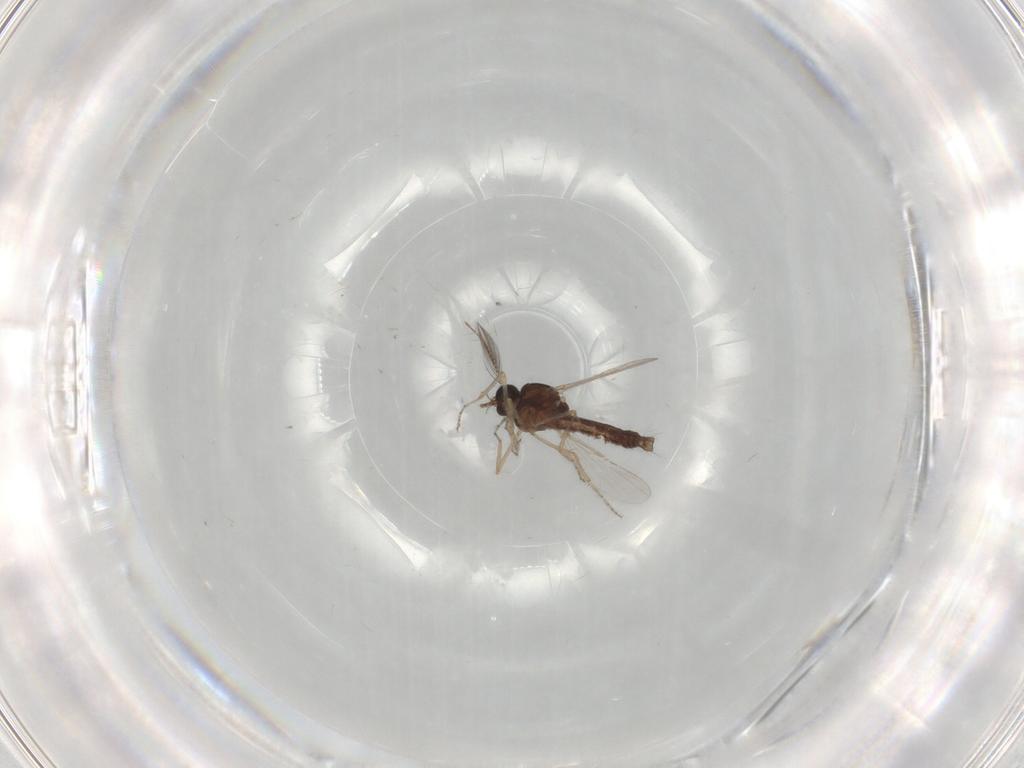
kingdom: Animalia
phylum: Arthropoda
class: Insecta
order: Diptera
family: Ceratopogonidae
